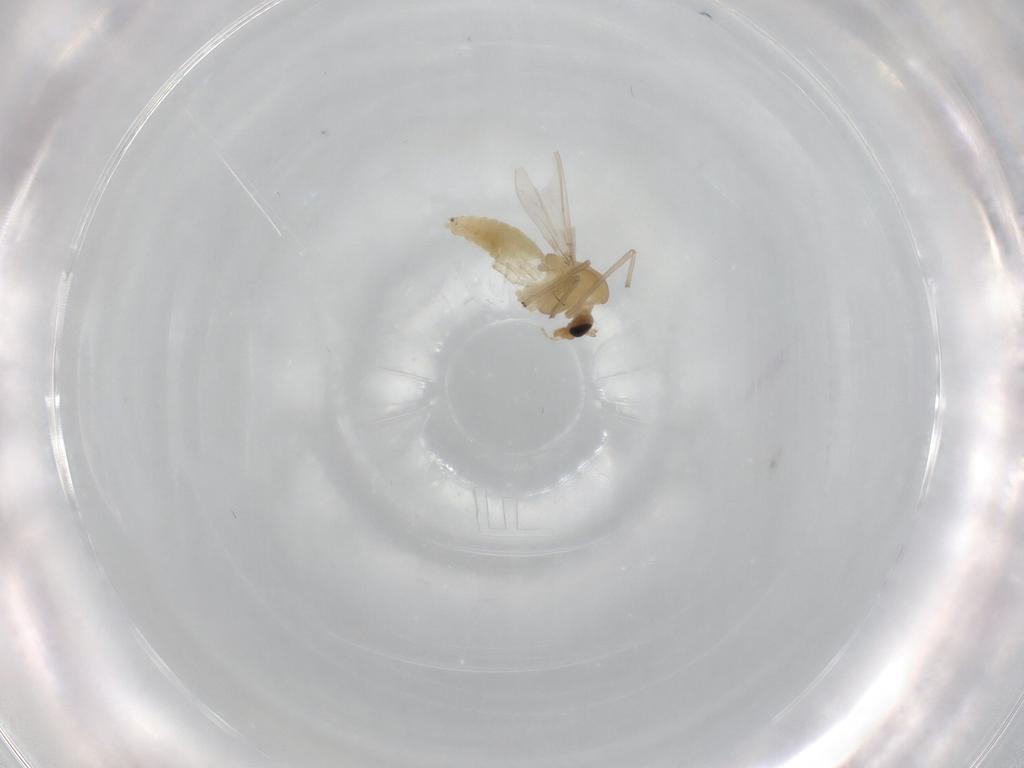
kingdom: Animalia
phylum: Arthropoda
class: Insecta
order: Diptera
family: Chironomidae
